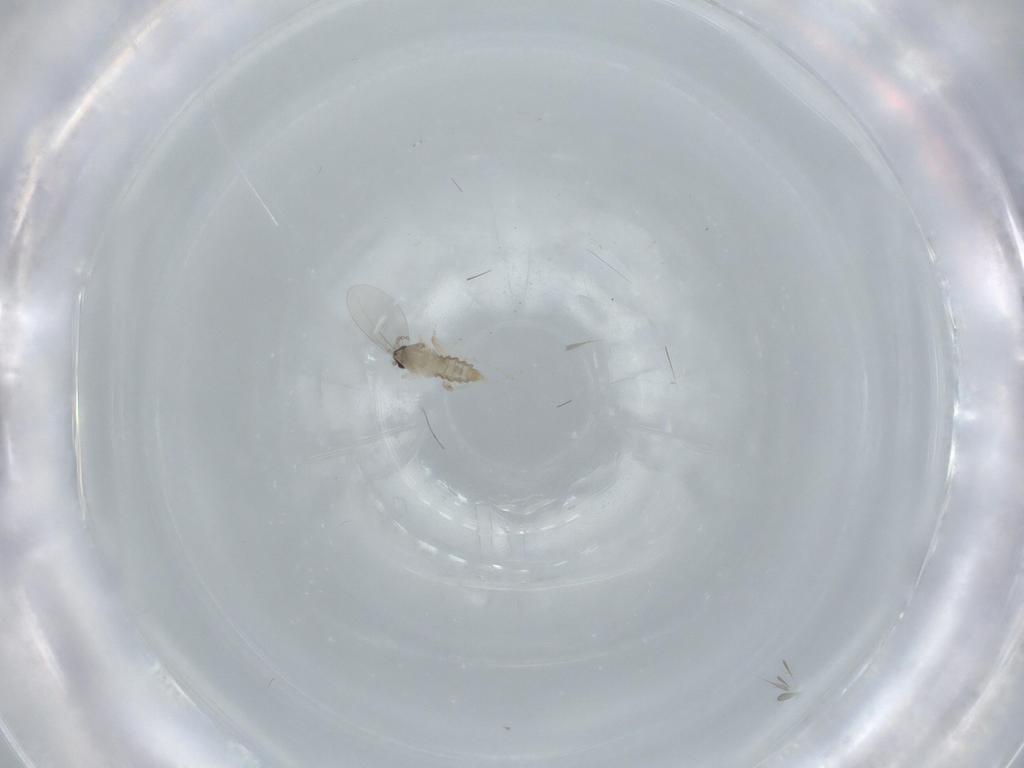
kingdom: Animalia
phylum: Arthropoda
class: Insecta
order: Diptera
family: Cecidomyiidae
